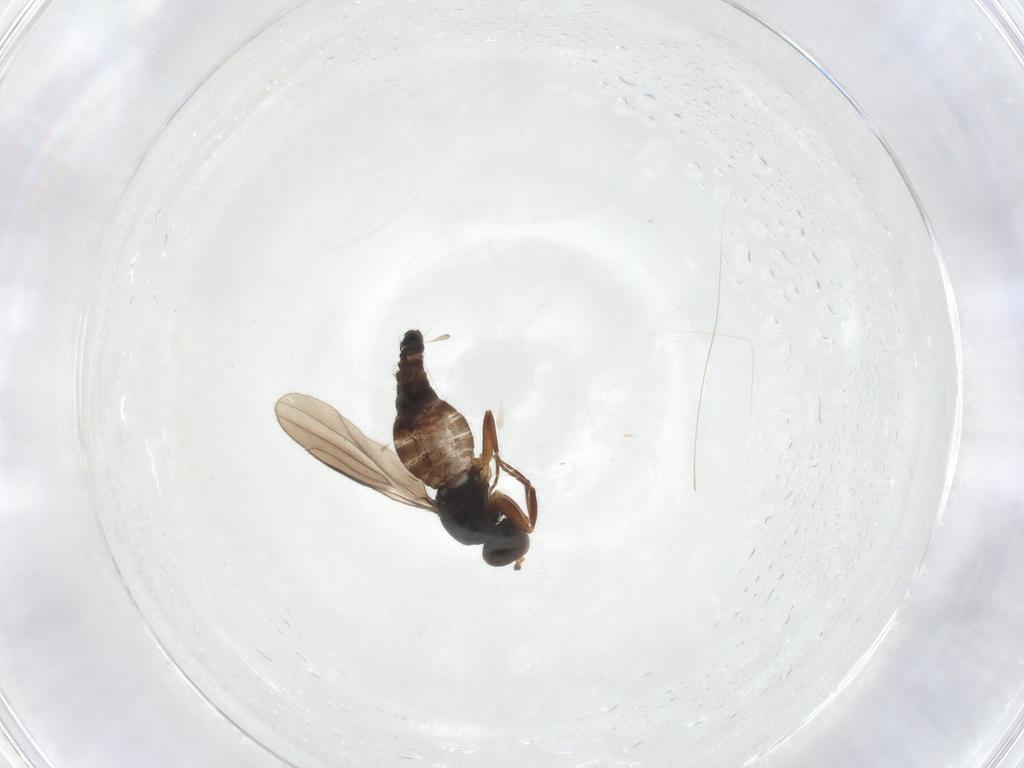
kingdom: Animalia
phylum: Arthropoda
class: Insecta
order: Diptera
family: Hybotidae
